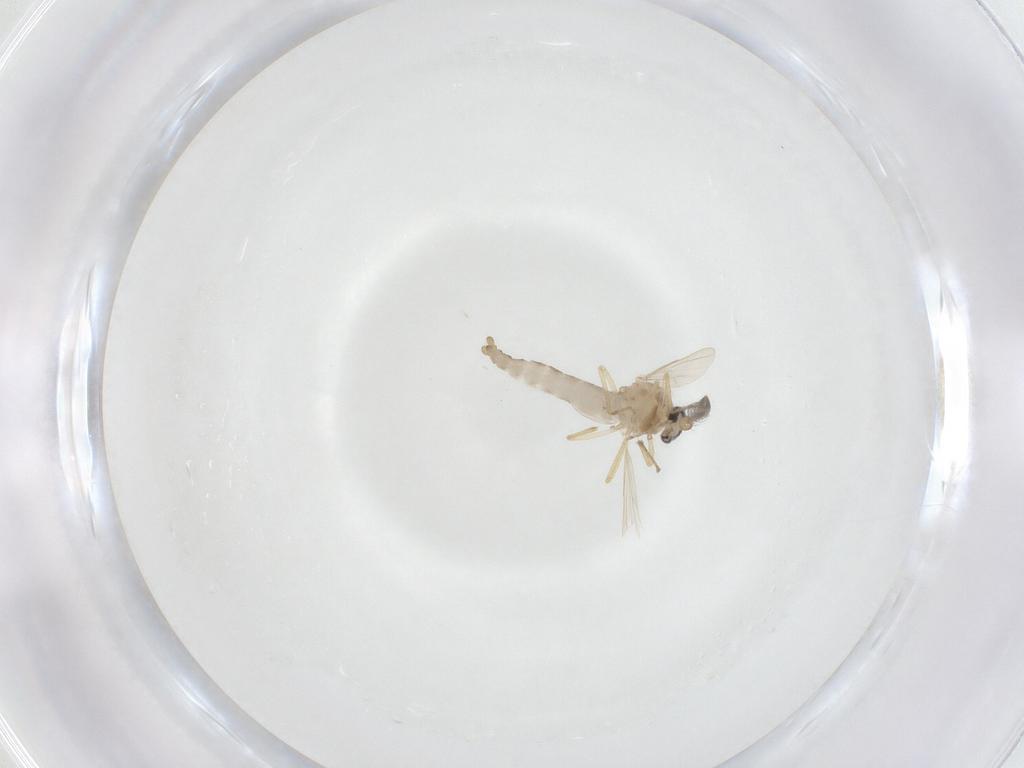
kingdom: Animalia
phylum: Arthropoda
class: Insecta
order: Diptera
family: Ceratopogonidae
